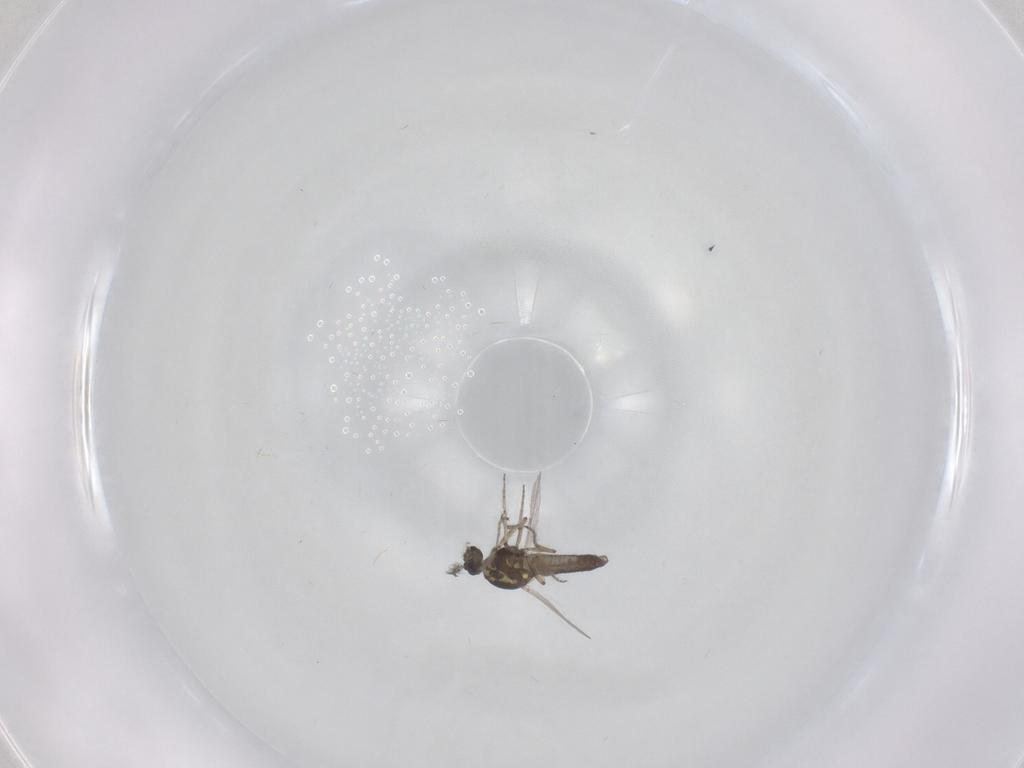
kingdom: Animalia
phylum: Arthropoda
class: Insecta
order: Diptera
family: Ceratopogonidae
